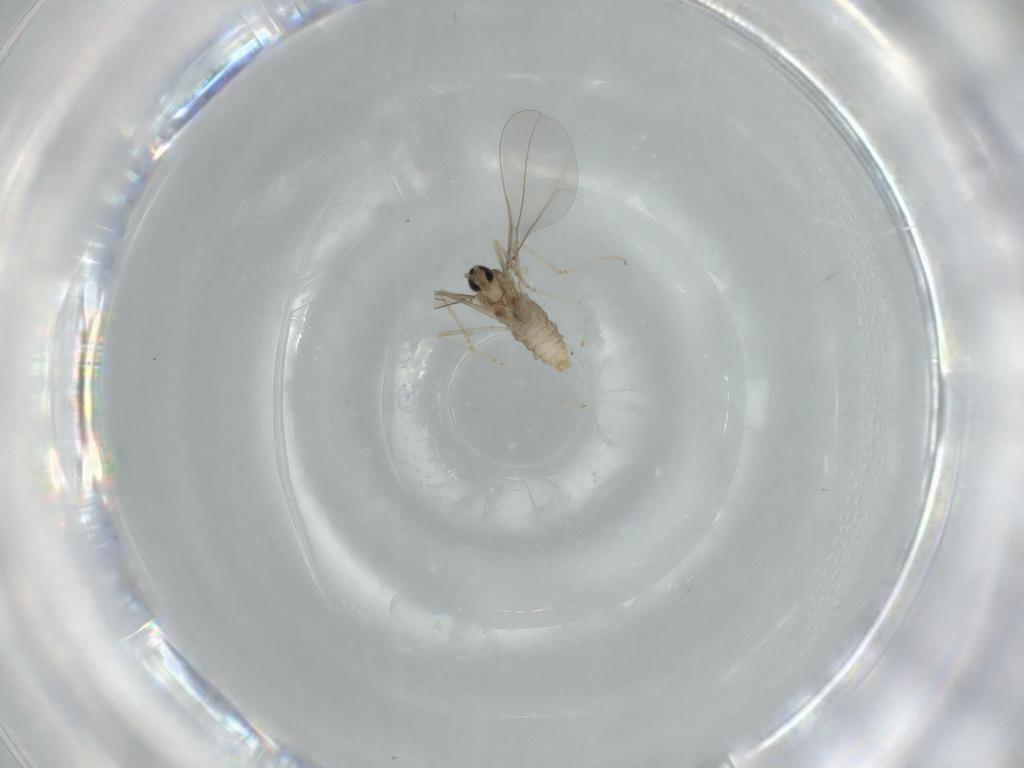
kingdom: Animalia
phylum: Arthropoda
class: Insecta
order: Diptera
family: Cecidomyiidae
